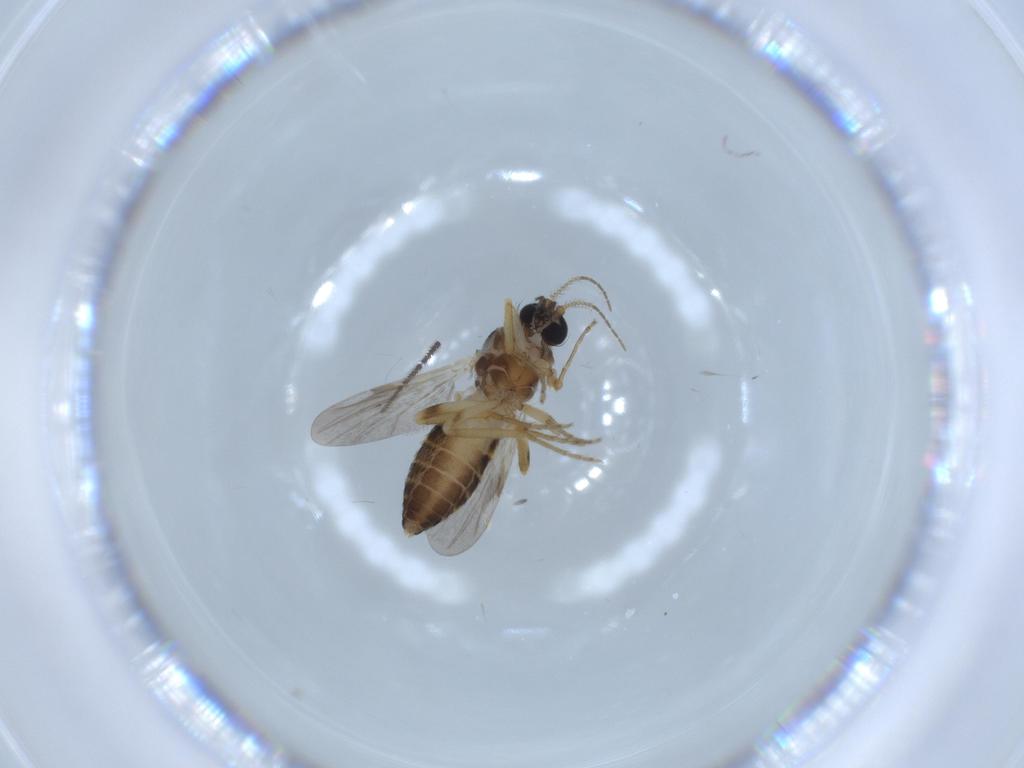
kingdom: Animalia
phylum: Arthropoda
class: Insecta
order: Diptera
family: Ceratopogonidae
